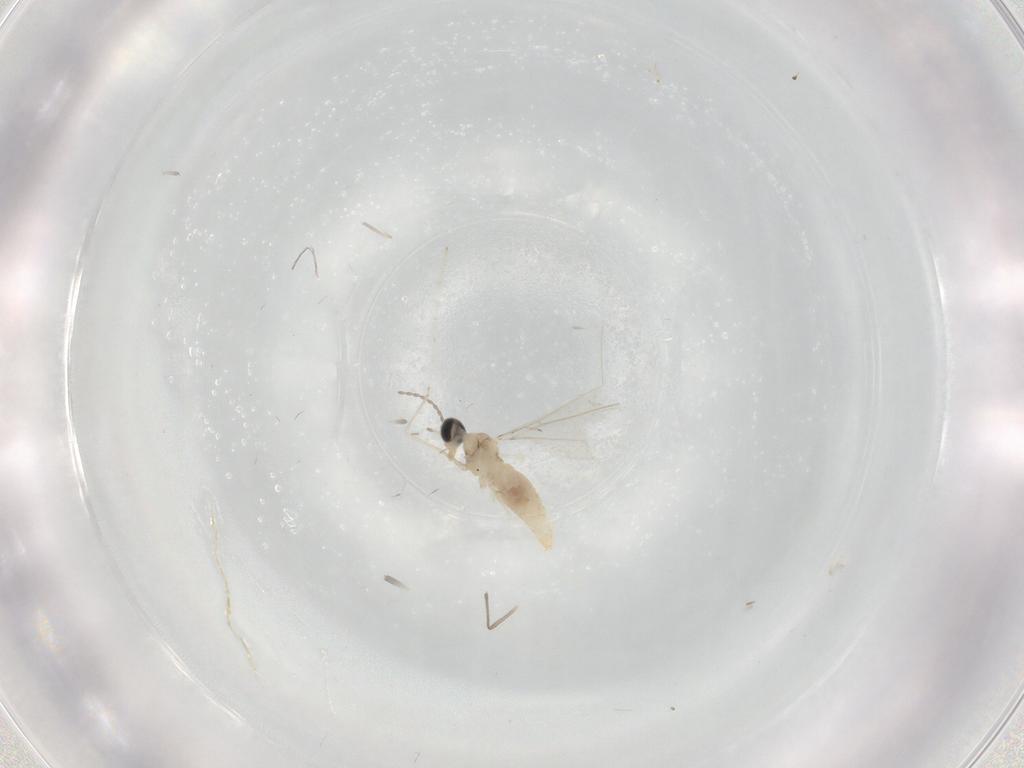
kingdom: Animalia
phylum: Arthropoda
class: Insecta
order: Diptera
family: Cecidomyiidae
